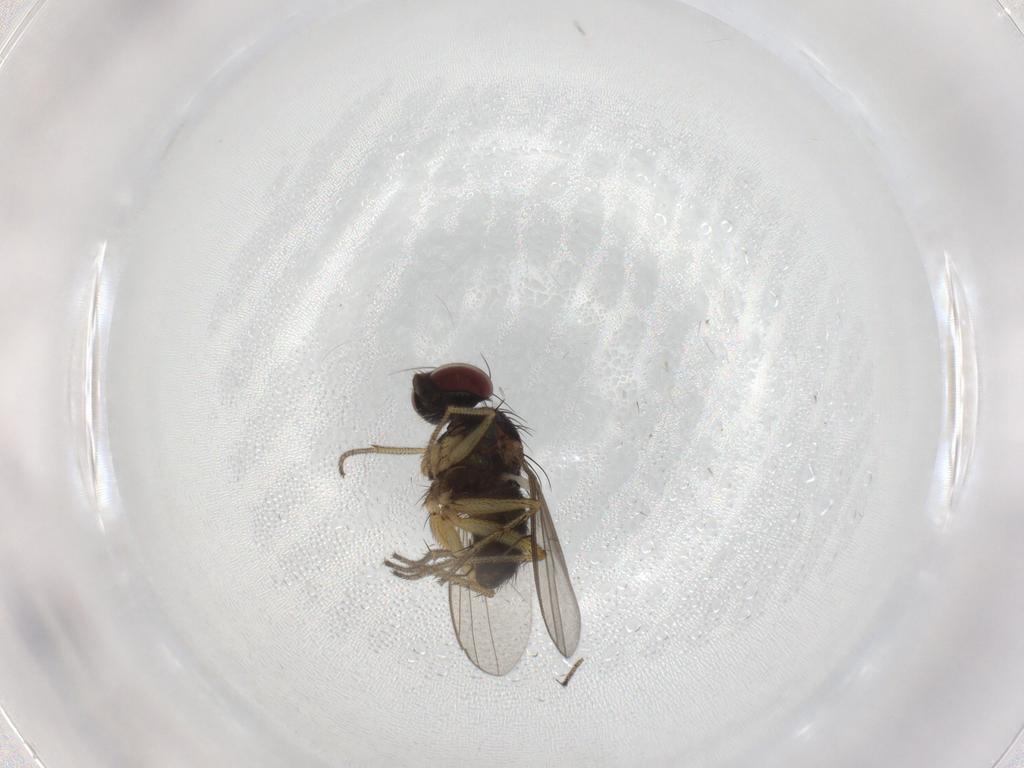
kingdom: Animalia
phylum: Arthropoda
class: Insecta
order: Diptera
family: Dolichopodidae
